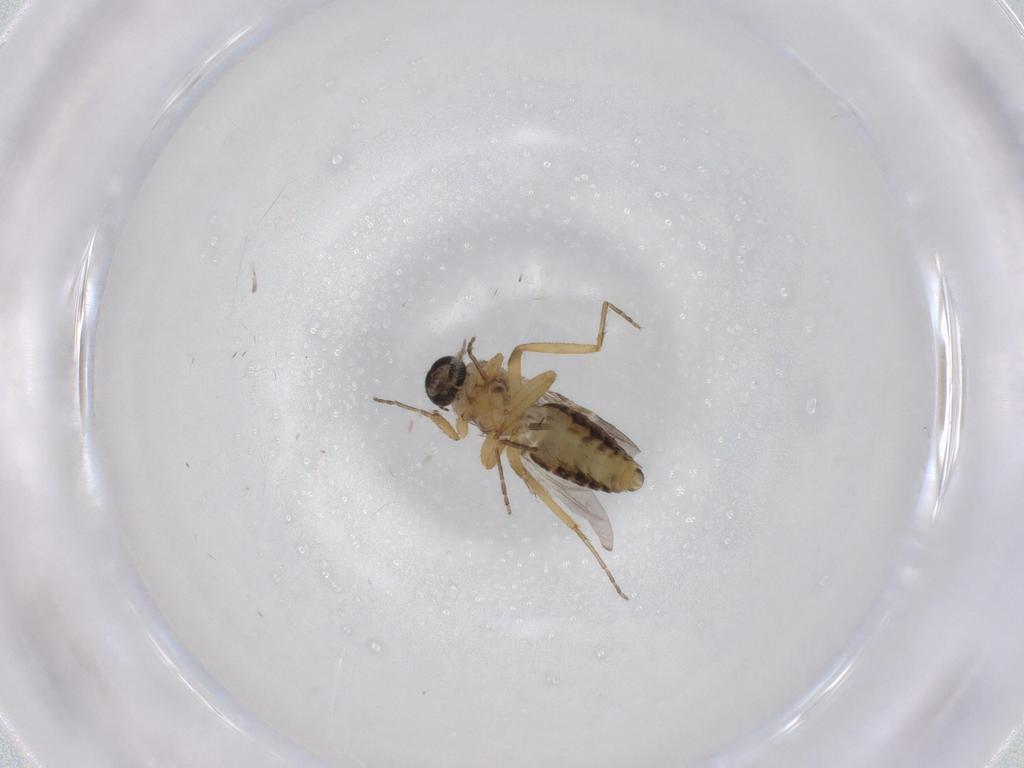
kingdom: Animalia
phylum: Arthropoda
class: Insecta
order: Diptera
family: Ceratopogonidae
